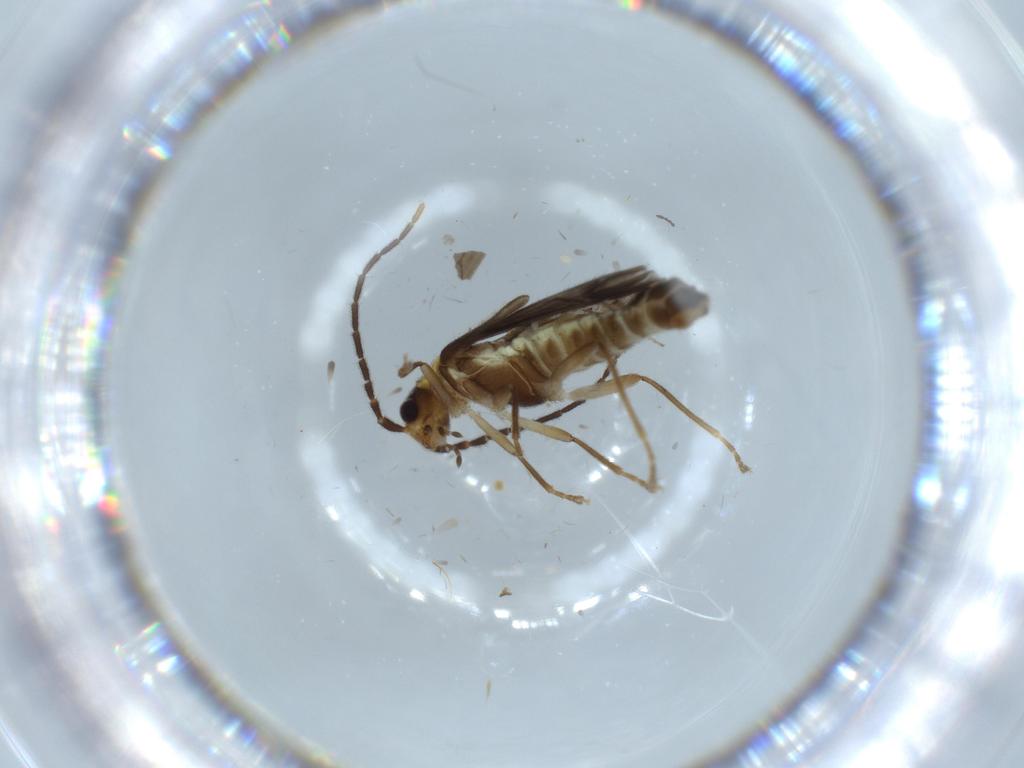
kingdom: Animalia
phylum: Arthropoda
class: Insecta
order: Coleoptera
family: Cantharidae
